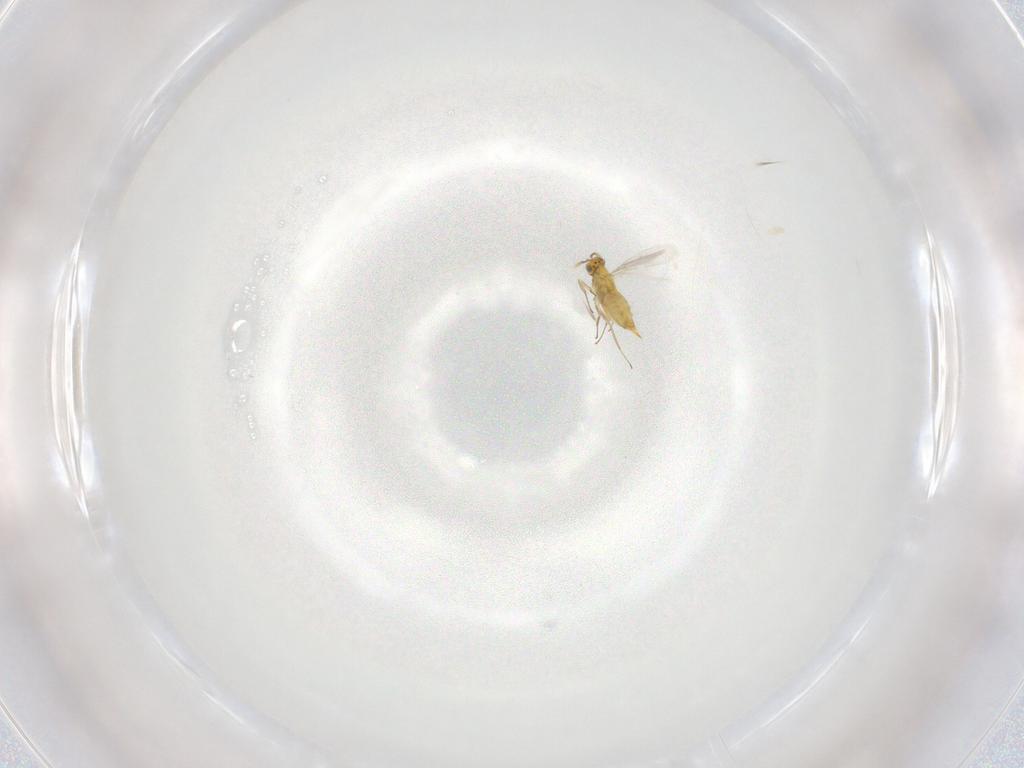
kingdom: Animalia
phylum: Arthropoda
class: Insecta
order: Hymenoptera
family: Aphelinidae
